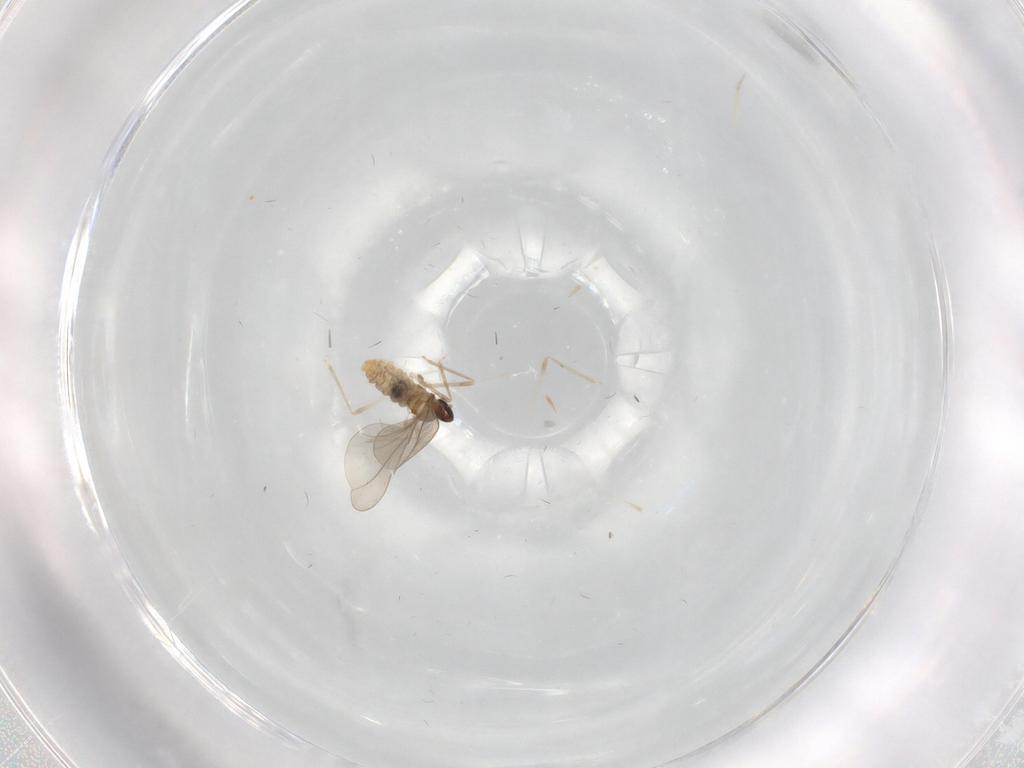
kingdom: Animalia
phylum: Arthropoda
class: Insecta
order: Diptera
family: Cecidomyiidae
